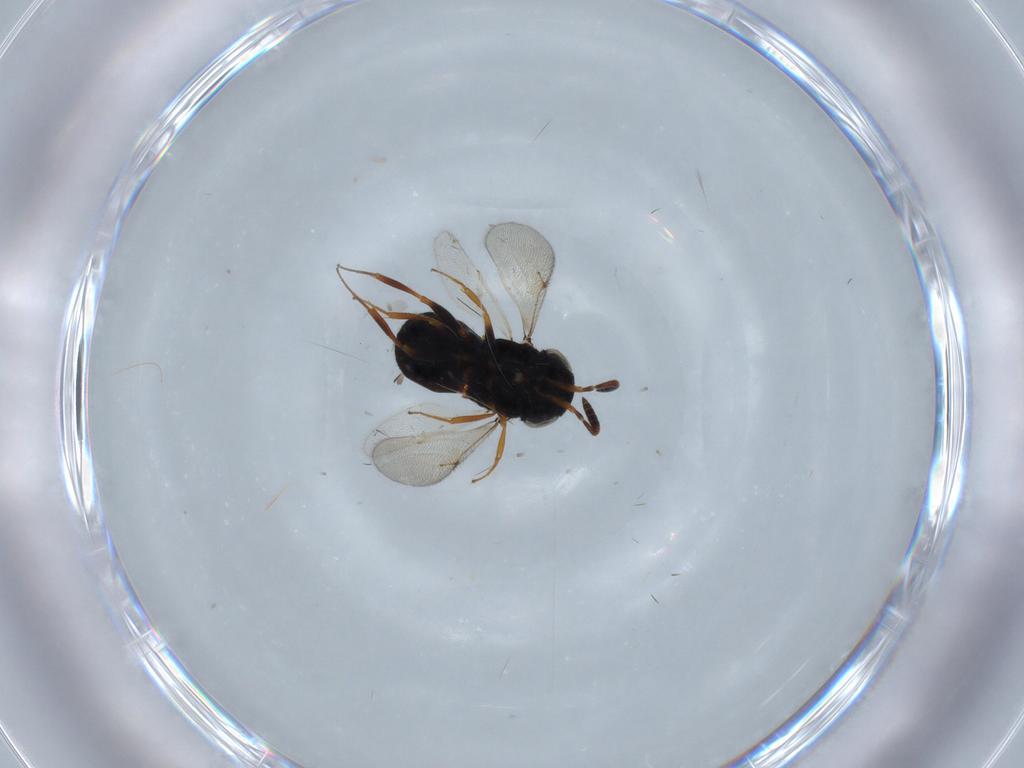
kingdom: Animalia
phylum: Arthropoda
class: Insecta
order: Hymenoptera
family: Scelionidae
